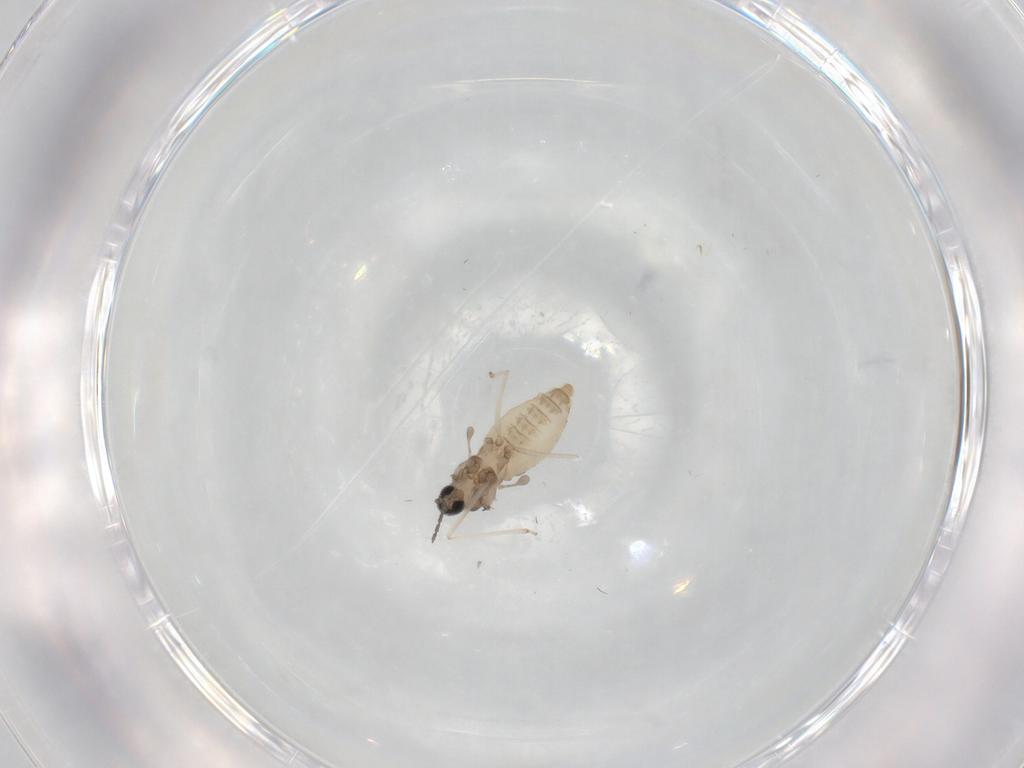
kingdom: Animalia
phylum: Arthropoda
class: Insecta
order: Diptera
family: Cecidomyiidae
